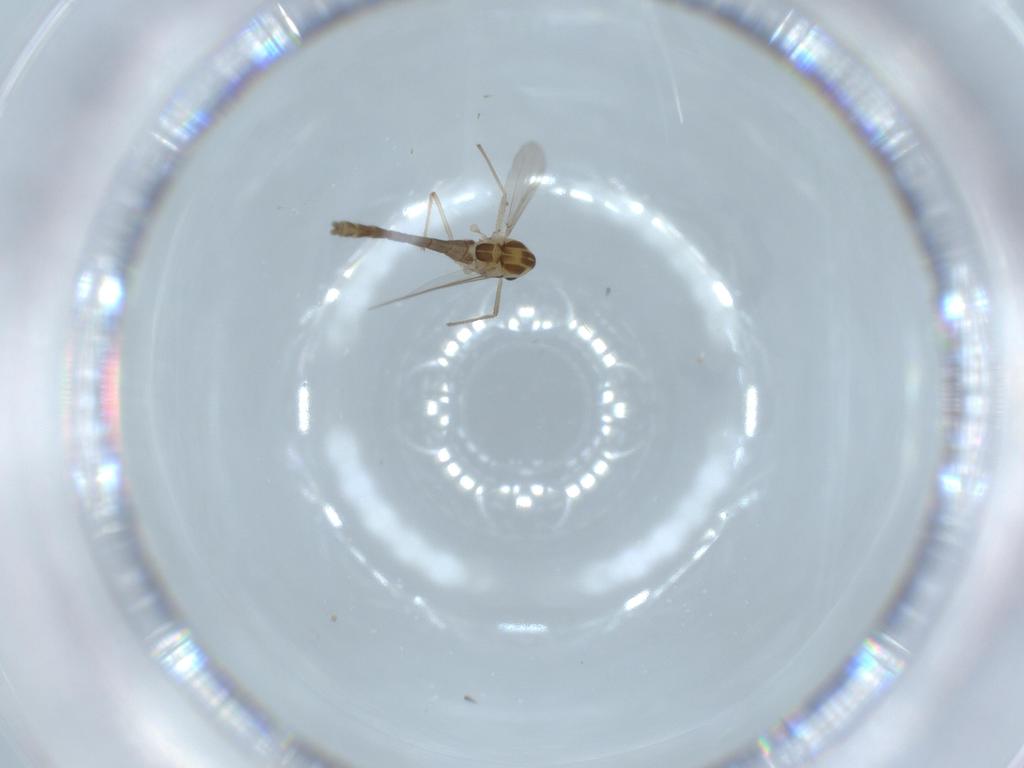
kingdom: Animalia
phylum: Arthropoda
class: Insecta
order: Diptera
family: Chironomidae
